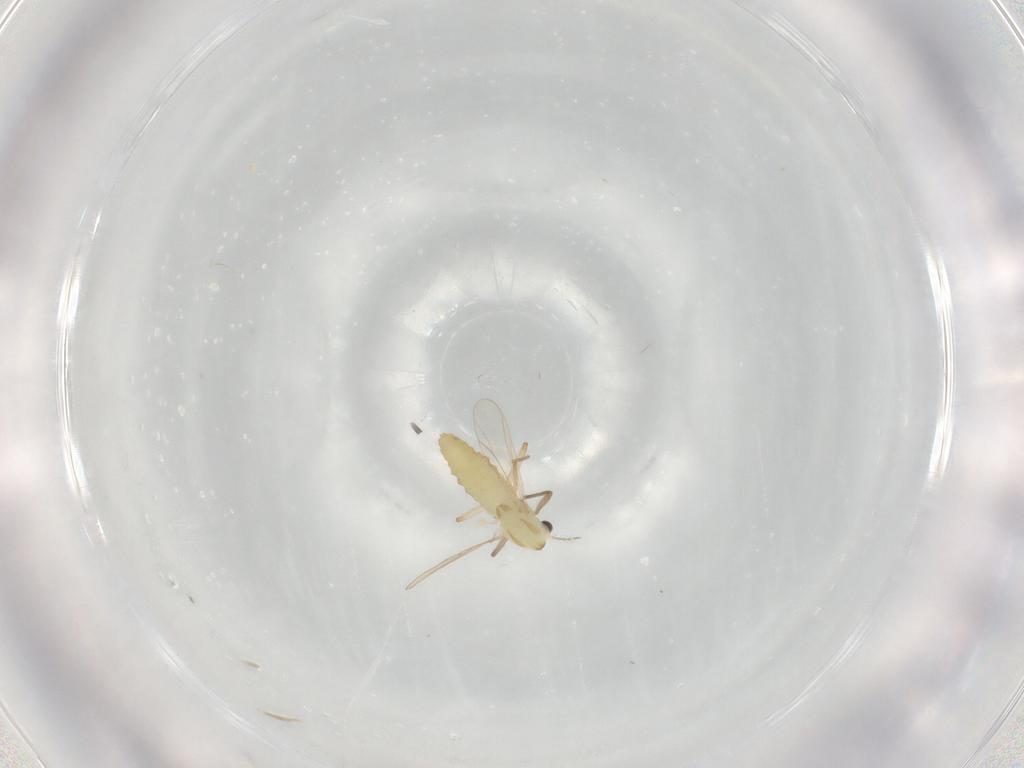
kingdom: Animalia
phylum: Arthropoda
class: Insecta
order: Diptera
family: Chironomidae
